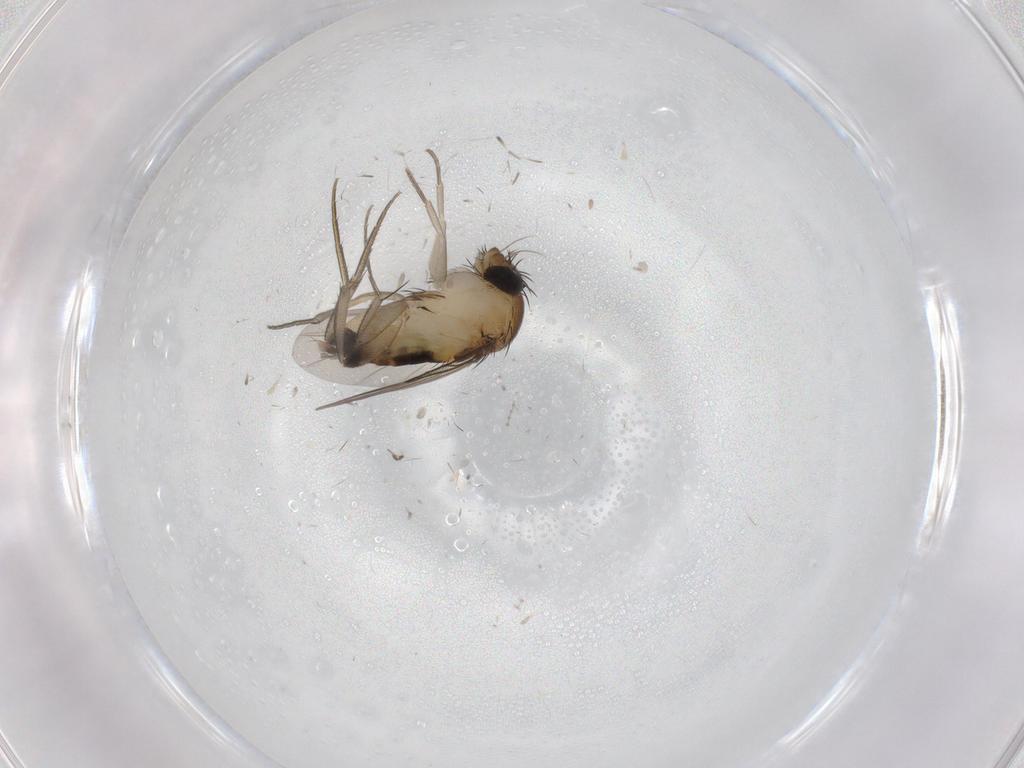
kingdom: Animalia
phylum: Arthropoda
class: Insecta
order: Diptera
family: Phoridae
